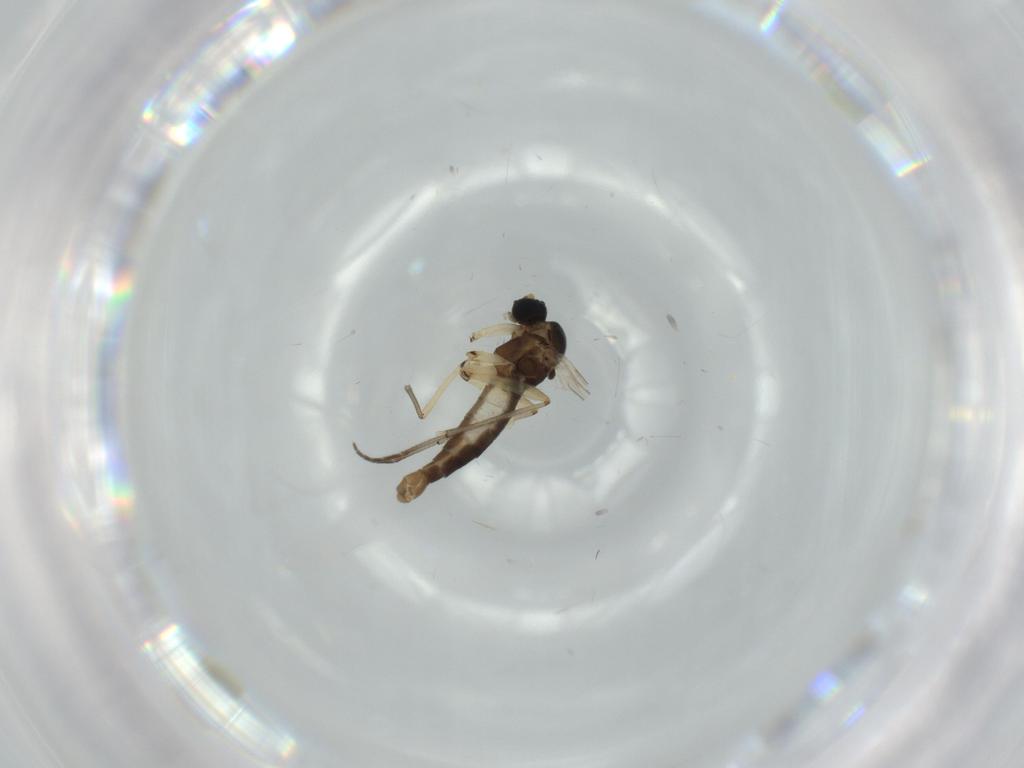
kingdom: Animalia
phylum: Arthropoda
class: Insecta
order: Diptera
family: Sciaridae
